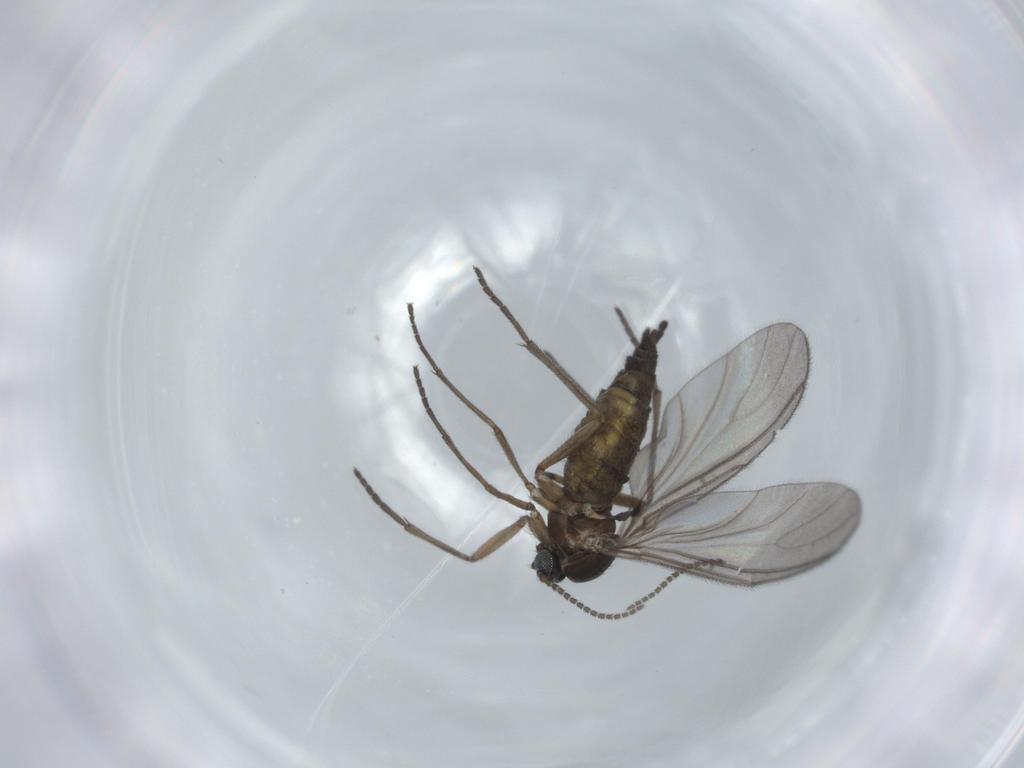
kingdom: Animalia
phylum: Arthropoda
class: Insecta
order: Diptera
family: Sciaridae
